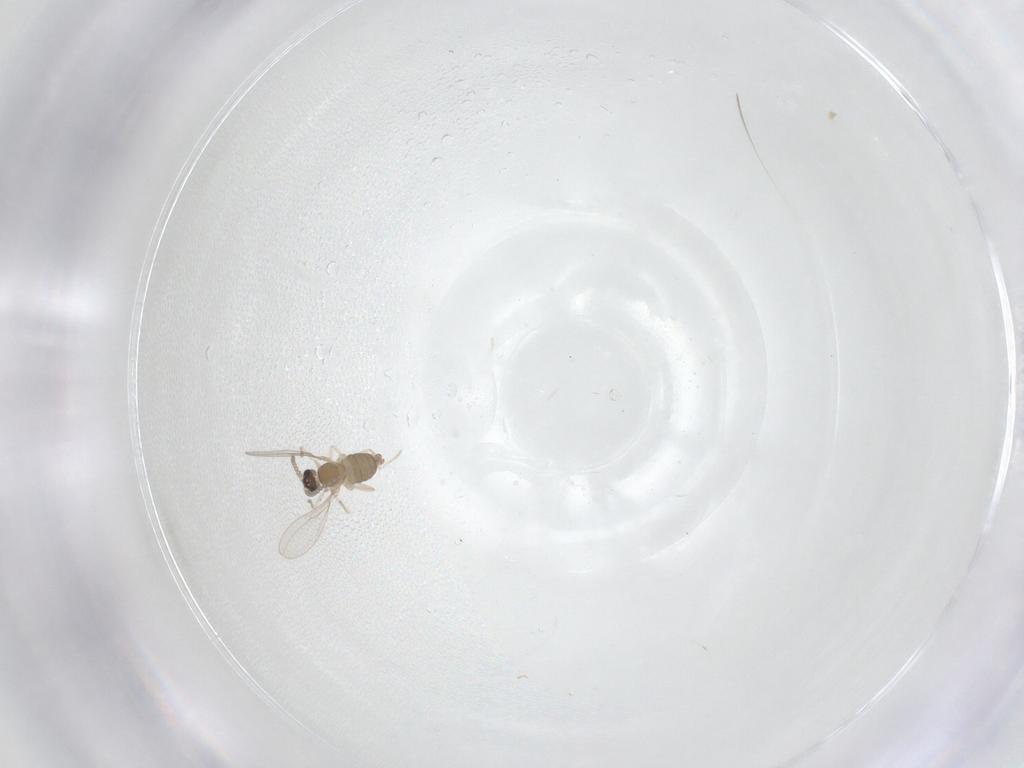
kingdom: Animalia
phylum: Arthropoda
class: Insecta
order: Diptera
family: Cecidomyiidae
